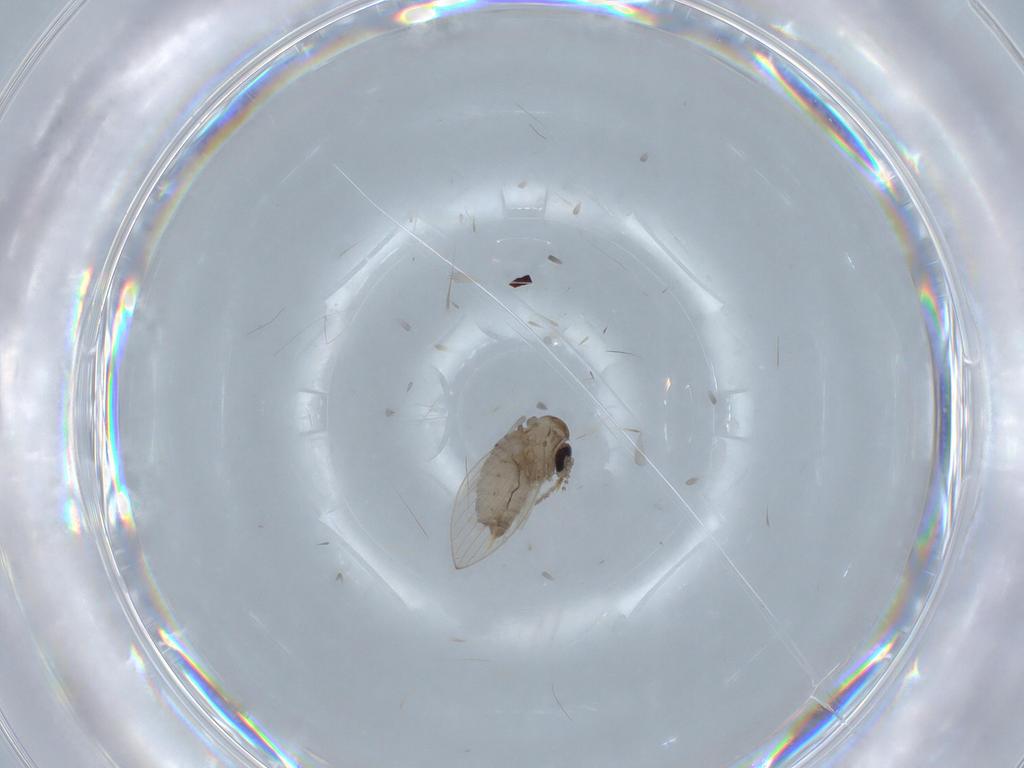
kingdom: Animalia
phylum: Arthropoda
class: Insecta
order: Diptera
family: Psychodidae
